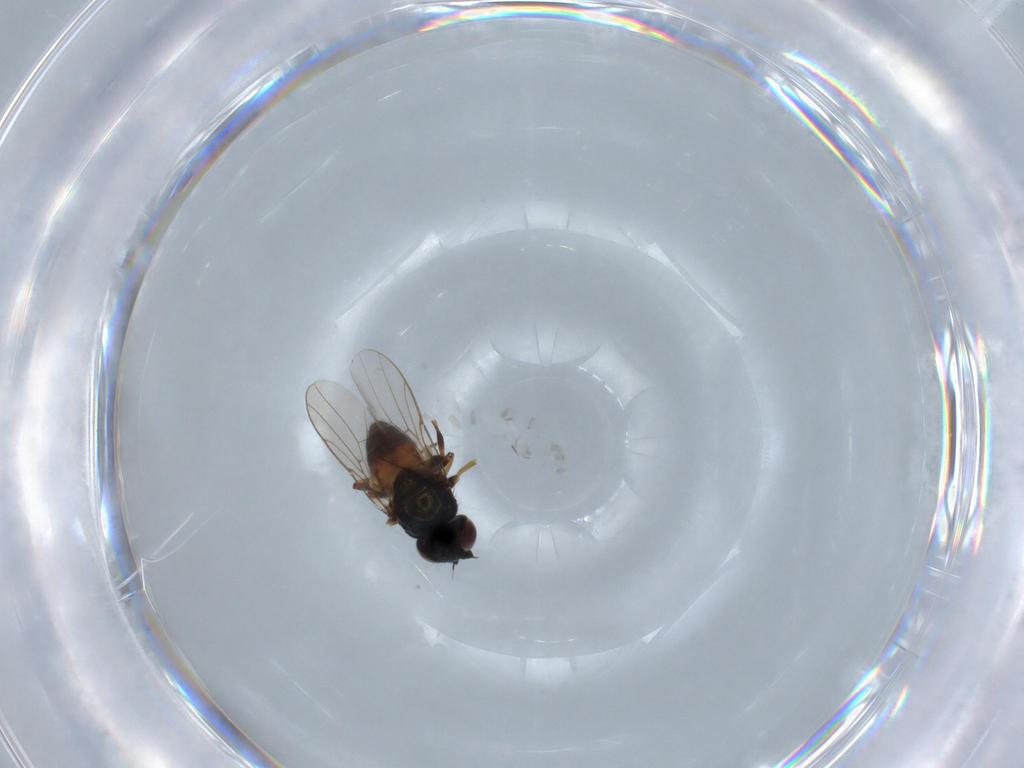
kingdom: Animalia
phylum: Arthropoda
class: Insecta
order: Diptera
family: Chloropidae
